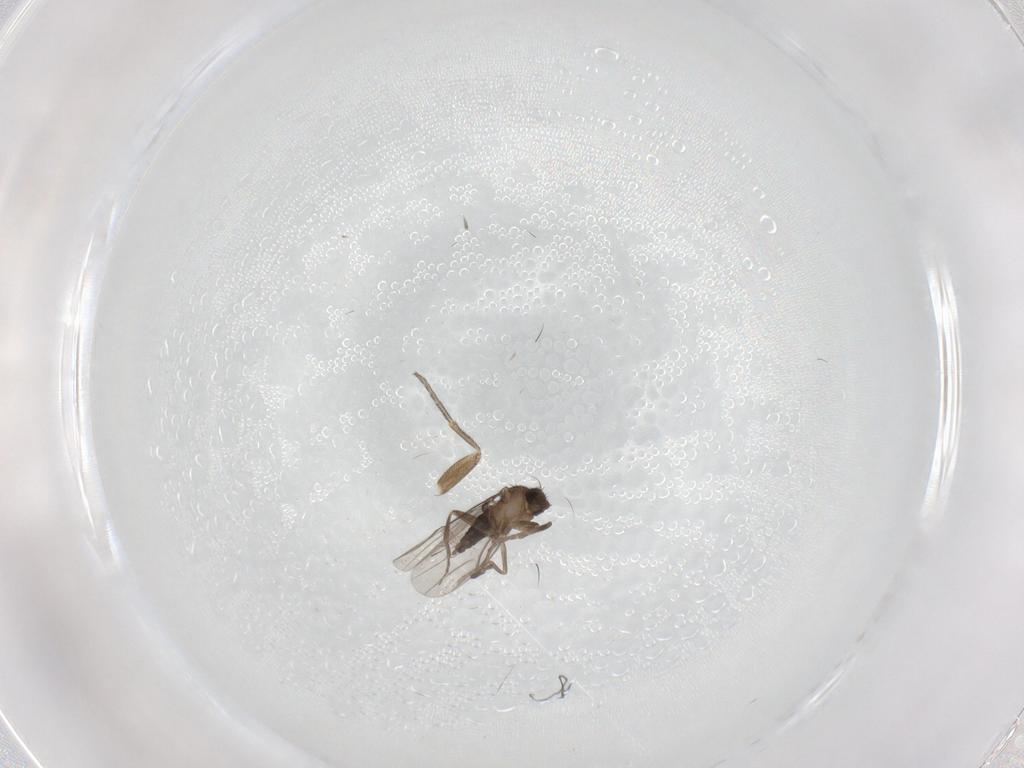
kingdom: Animalia
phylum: Arthropoda
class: Insecta
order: Diptera
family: Phoridae
